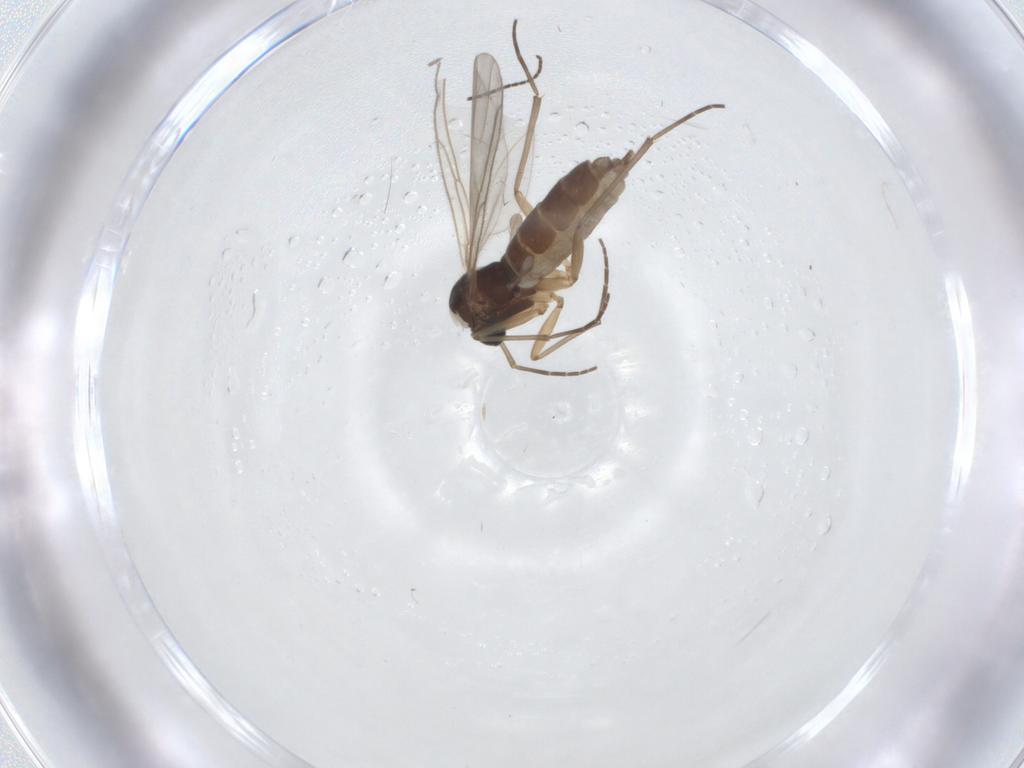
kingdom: Animalia
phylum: Arthropoda
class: Insecta
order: Diptera
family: Sciaridae
